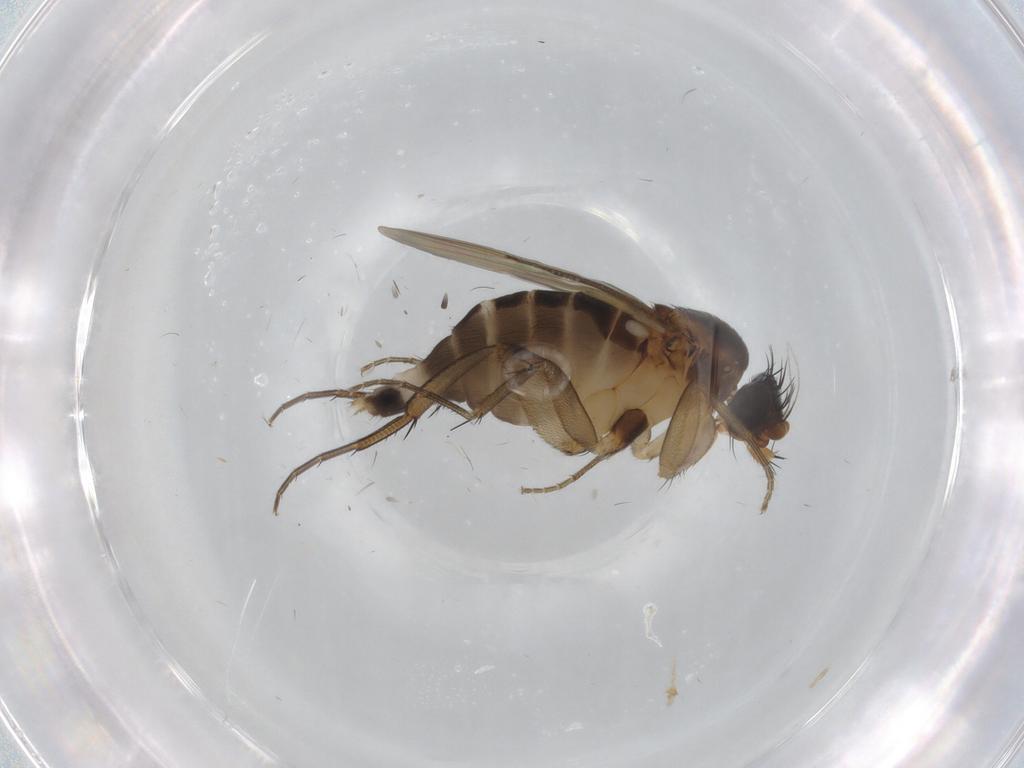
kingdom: Animalia
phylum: Arthropoda
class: Insecta
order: Diptera
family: Phoridae
